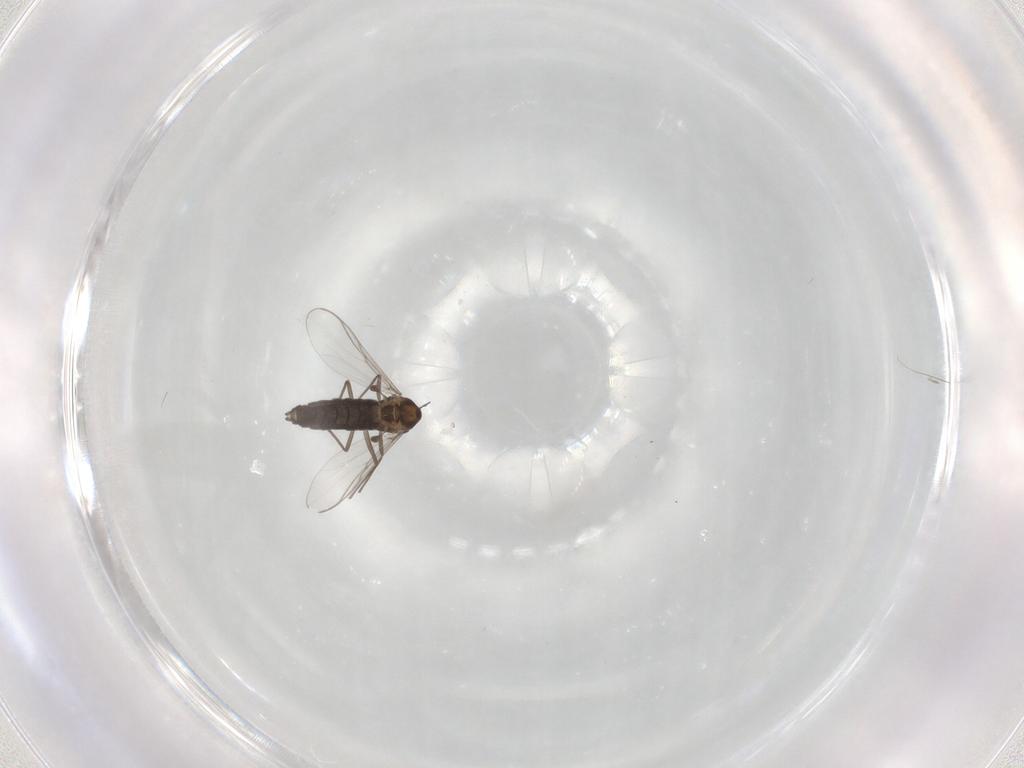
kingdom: Animalia
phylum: Arthropoda
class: Insecta
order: Diptera
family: Chironomidae
